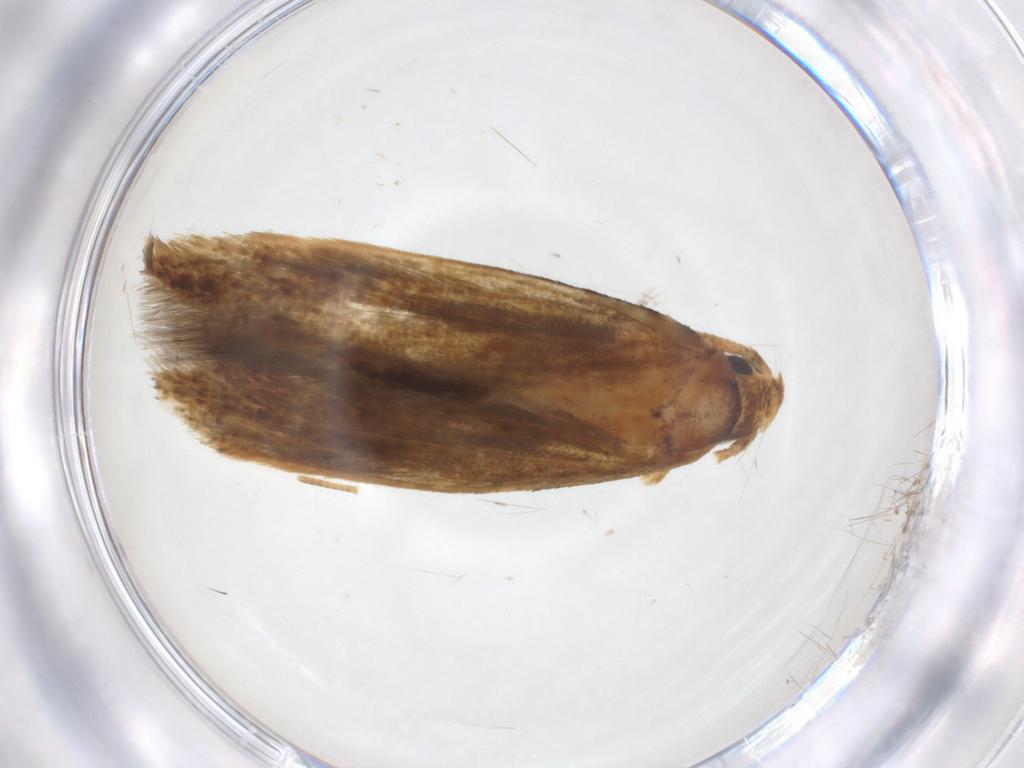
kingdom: Animalia
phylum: Arthropoda
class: Insecta
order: Lepidoptera
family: Tineidae
